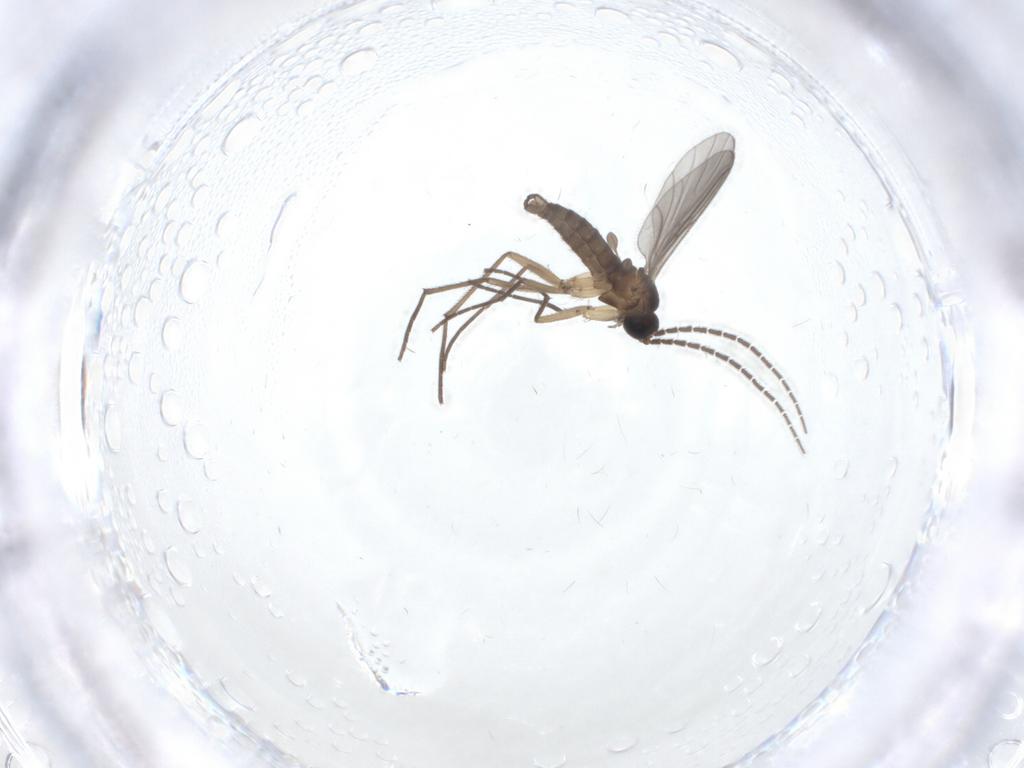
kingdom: Animalia
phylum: Arthropoda
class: Insecta
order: Diptera
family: Sciaridae
